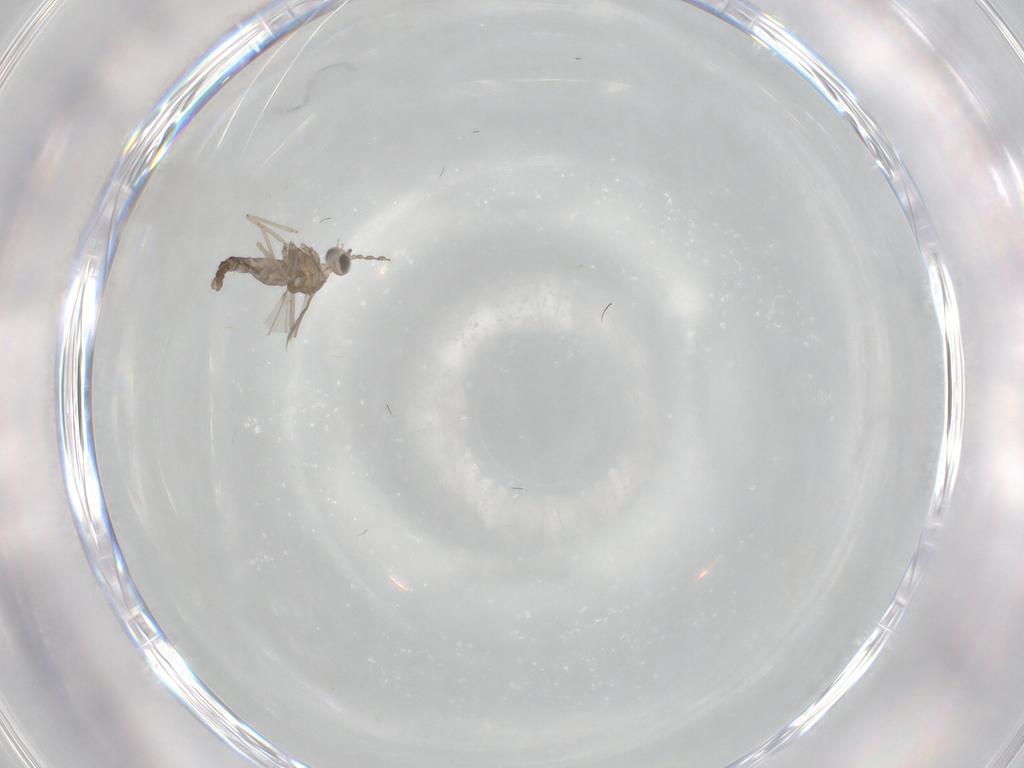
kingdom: Animalia
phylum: Arthropoda
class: Insecta
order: Diptera
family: Cecidomyiidae
